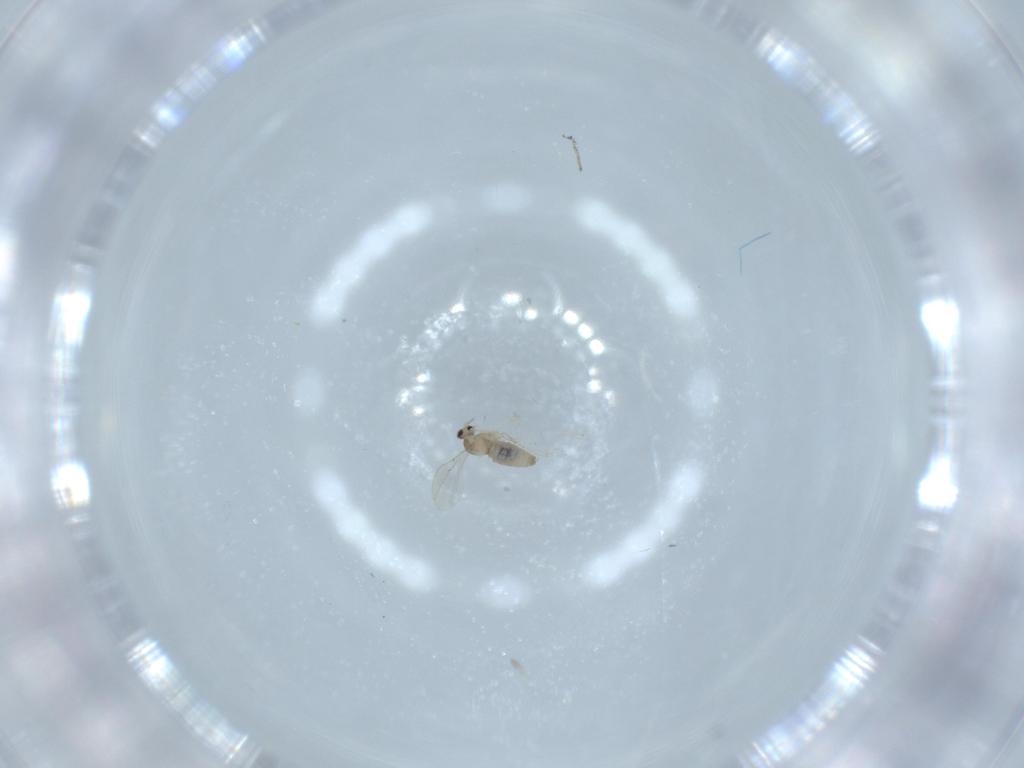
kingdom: Animalia
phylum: Arthropoda
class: Insecta
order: Diptera
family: Cecidomyiidae
